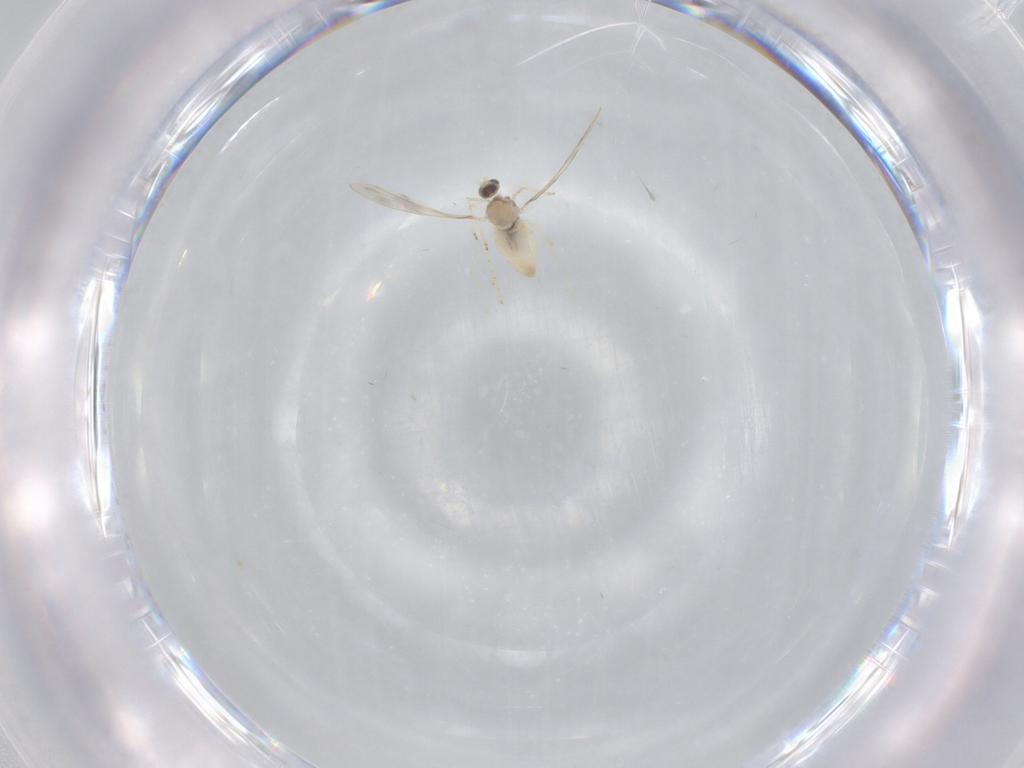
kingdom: Animalia
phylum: Arthropoda
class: Insecta
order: Diptera
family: Cecidomyiidae
